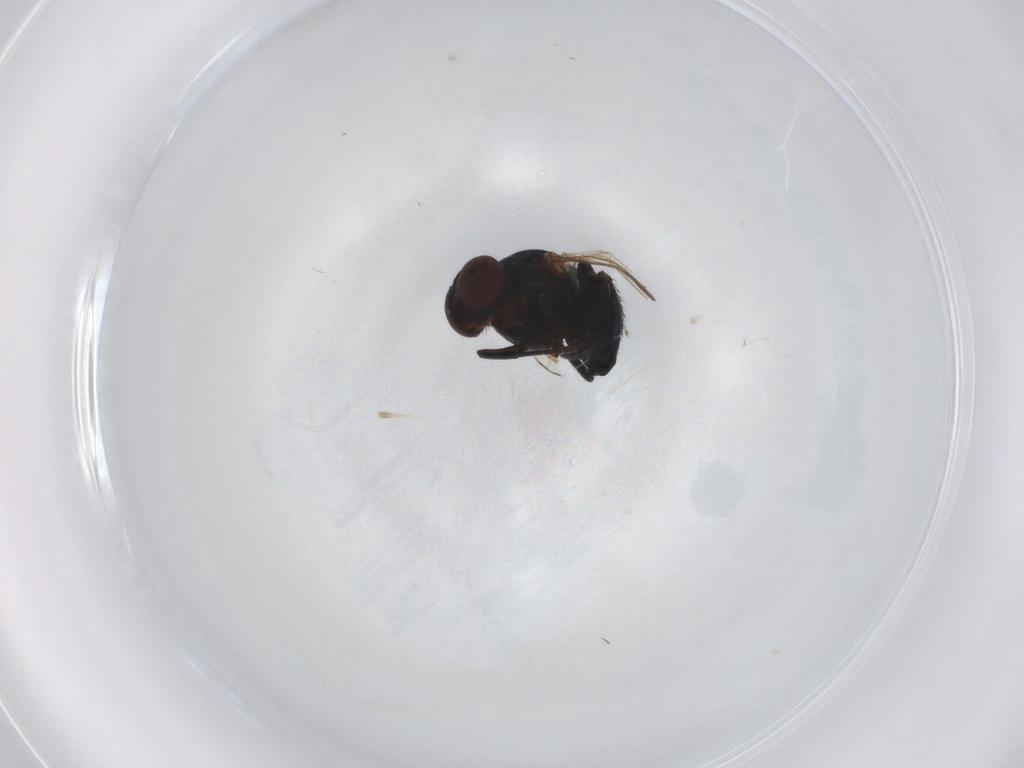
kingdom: Animalia
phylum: Arthropoda
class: Insecta
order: Diptera
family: Agromyzidae
